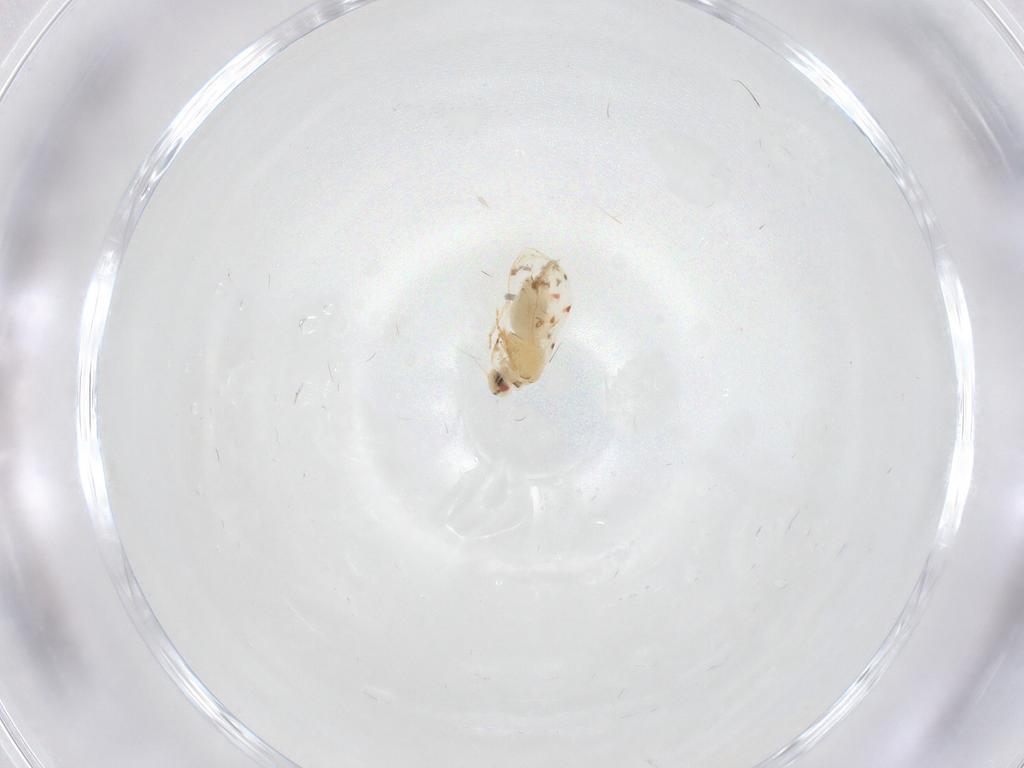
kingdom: Animalia
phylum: Arthropoda
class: Insecta
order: Hemiptera
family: Aleyrodidae
